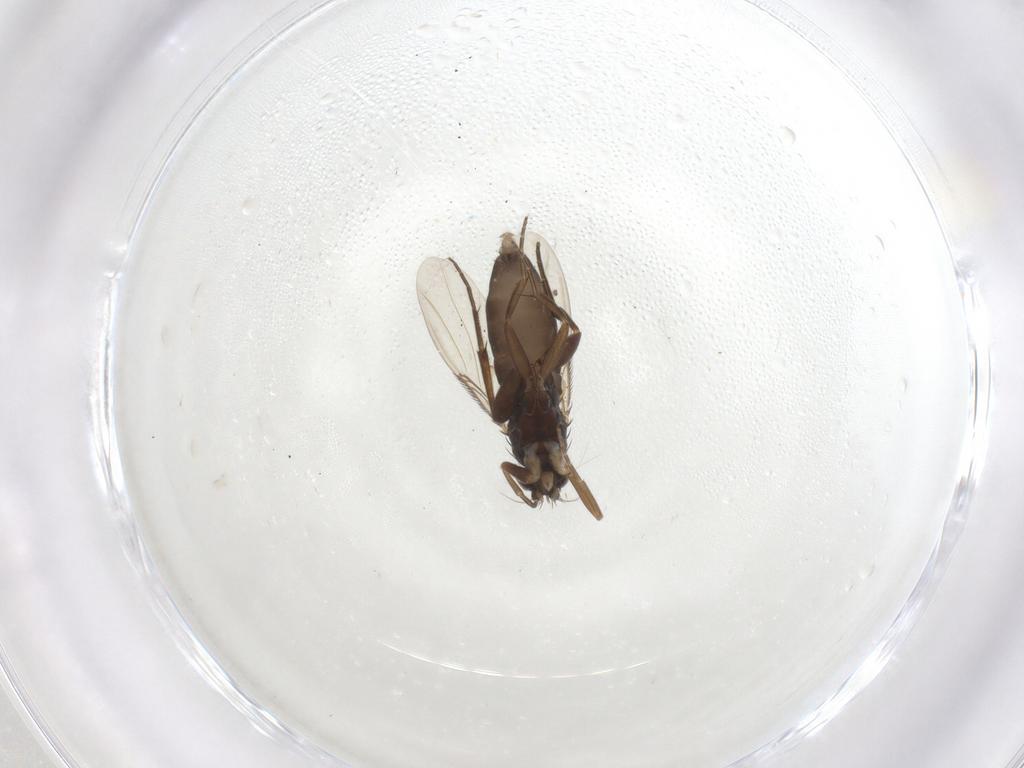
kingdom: Animalia
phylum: Arthropoda
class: Insecta
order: Diptera
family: Phoridae
